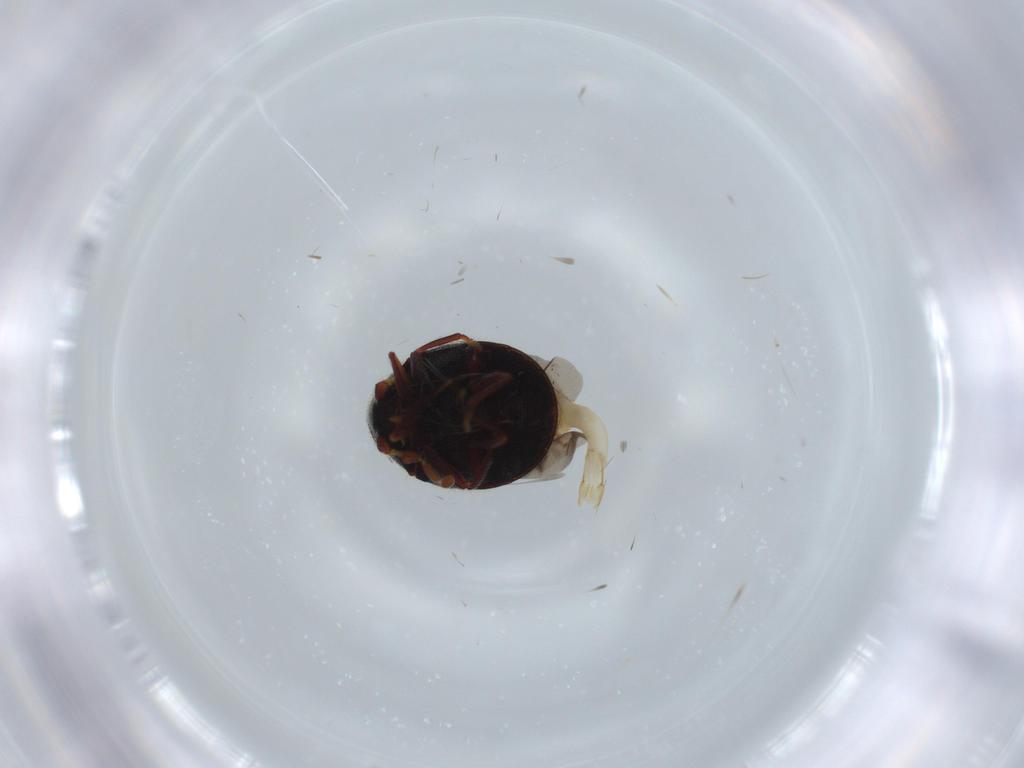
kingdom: Animalia
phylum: Arthropoda
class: Insecta
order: Coleoptera
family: Ptinidae
